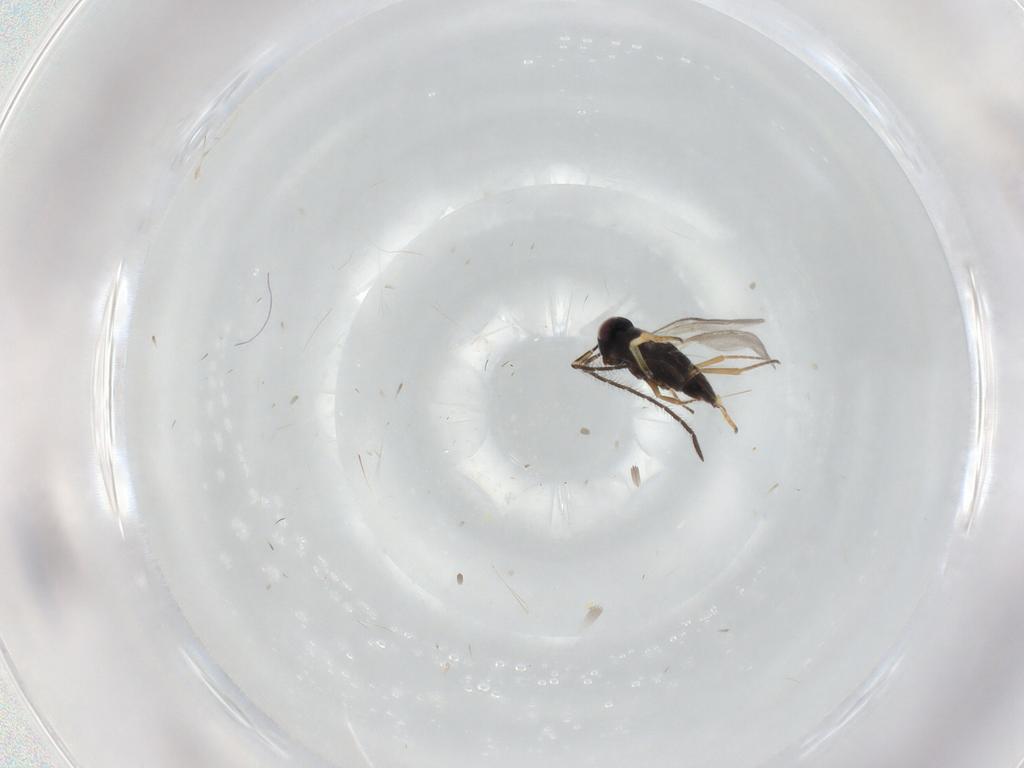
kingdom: Animalia
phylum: Arthropoda
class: Insecta
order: Hymenoptera
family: Encyrtidae
